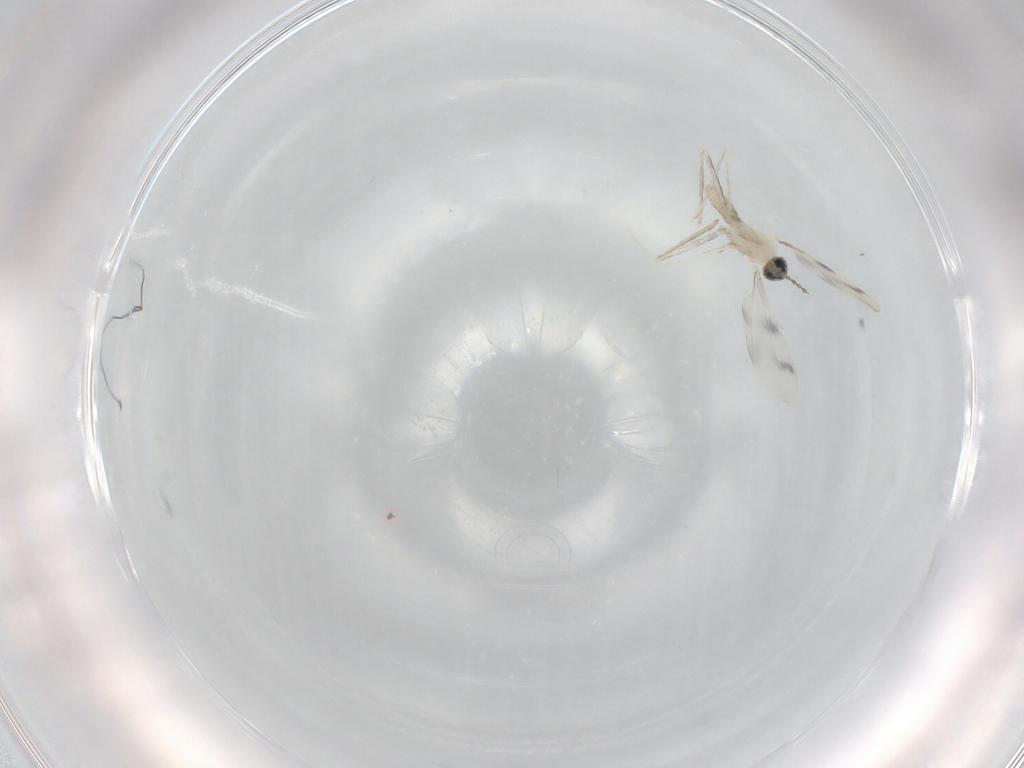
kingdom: Animalia
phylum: Arthropoda
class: Insecta
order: Diptera
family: Cecidomyiidae
